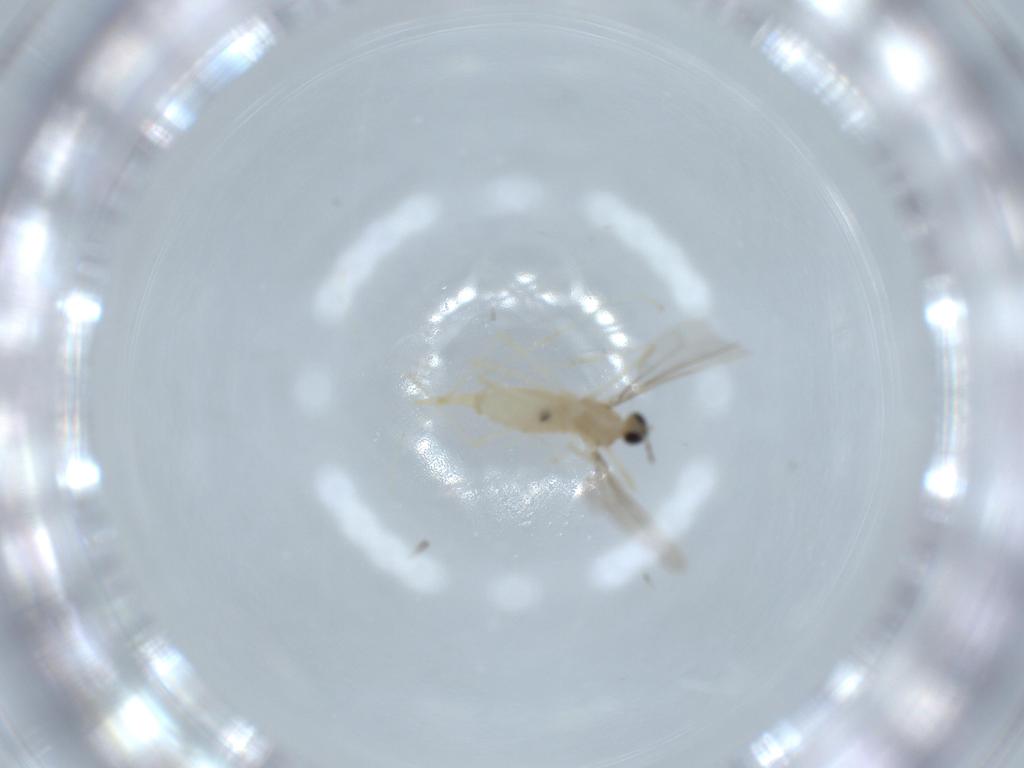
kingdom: Animalia
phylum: Arthropoda
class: Insecta
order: Diptera
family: Cecidomyiidae
